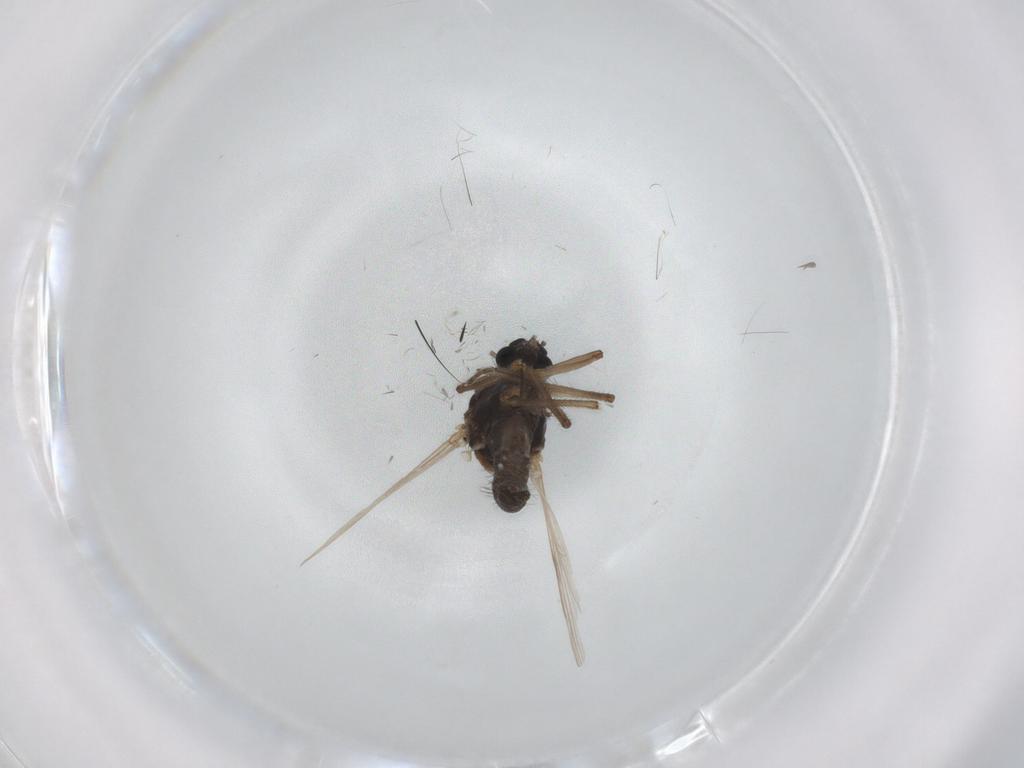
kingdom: Animalia
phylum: Arthropoda
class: Insecta
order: Diptera
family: Ceratopogonidae
